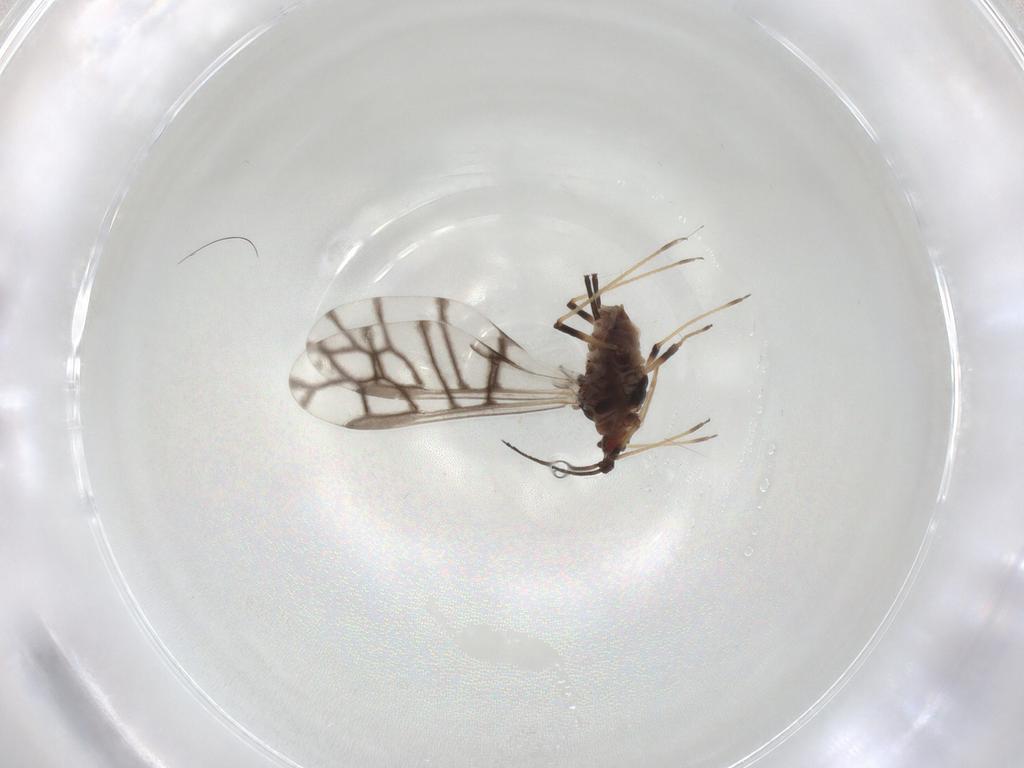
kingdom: Animalia
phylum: Arthropoda
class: Insecta
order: Hemiptera
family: Aphididae
